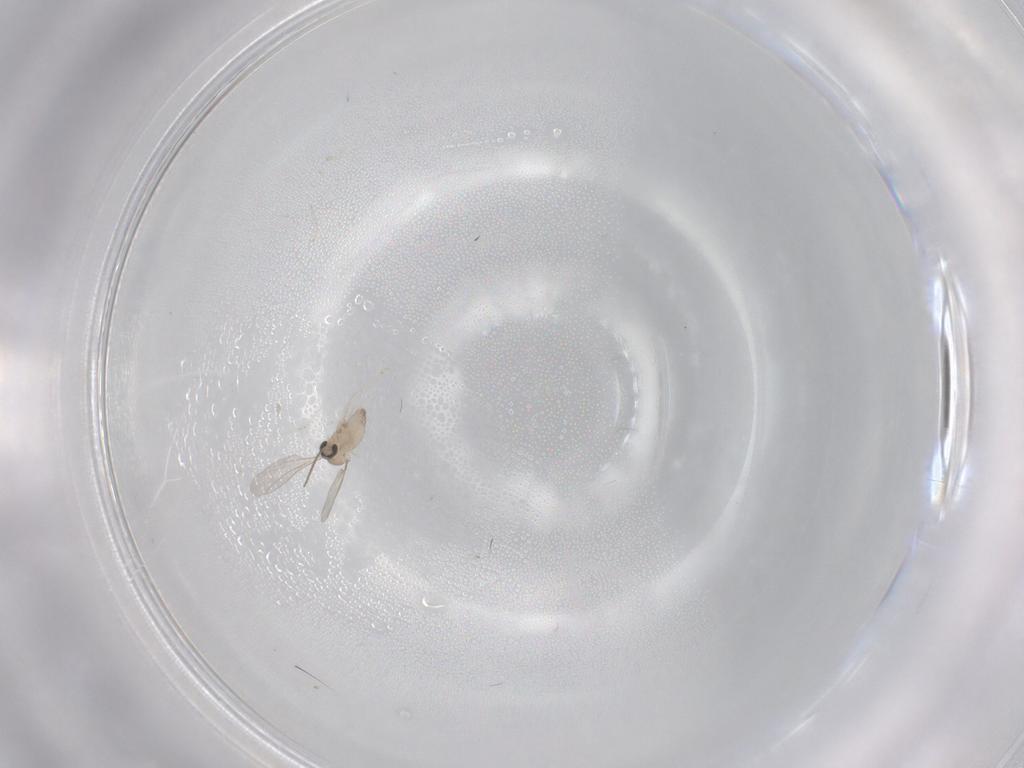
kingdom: Animalia
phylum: Arthropoda
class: Insecta
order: Diptera
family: Cecidomyiidae
